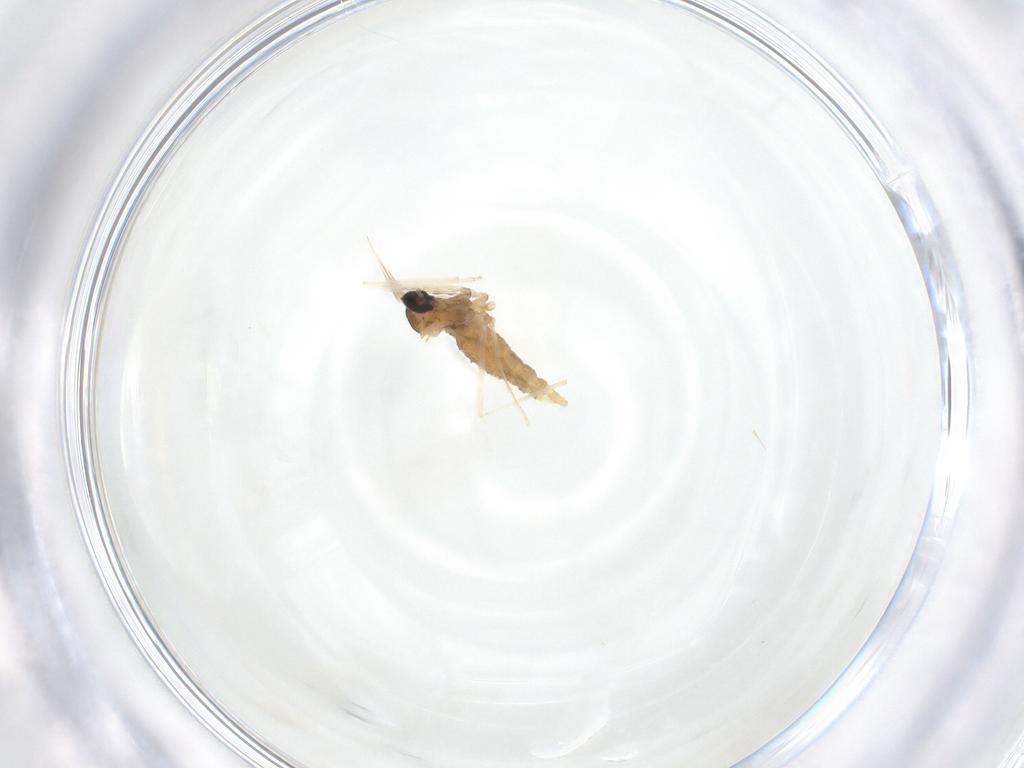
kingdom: Animalia
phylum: Arthropoda
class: Insecta
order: Diptera
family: Cecidomyiidae
